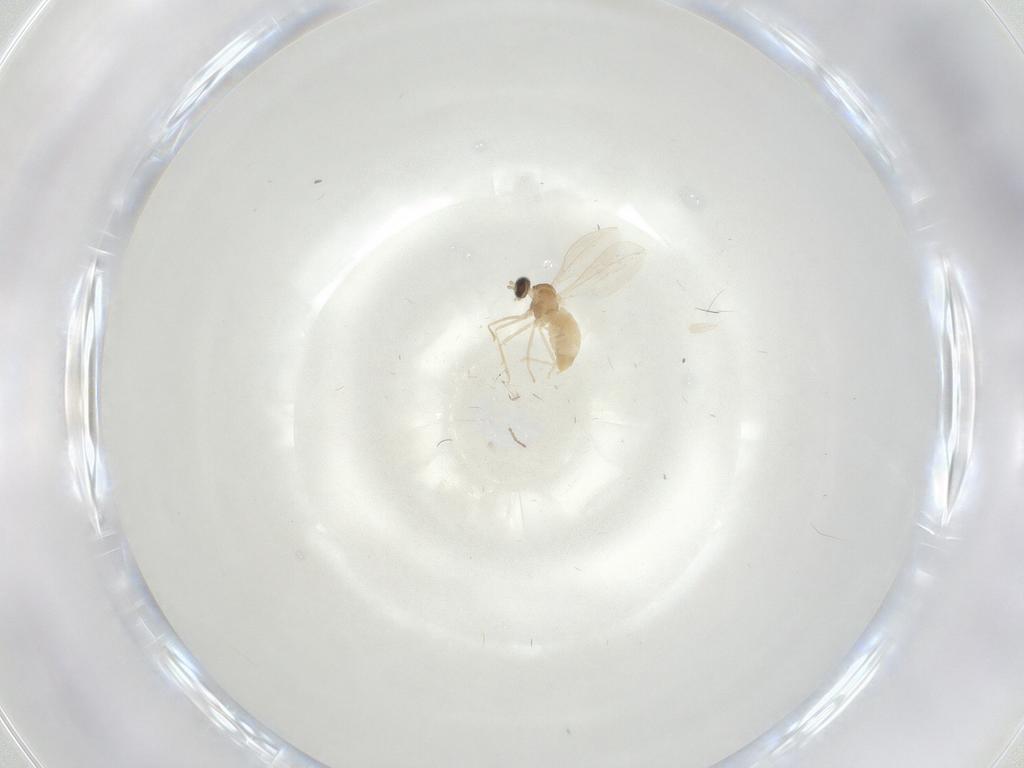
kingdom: Animalia
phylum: Arthropoda
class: Insecta
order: Diptera
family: Cecidomyiidae
